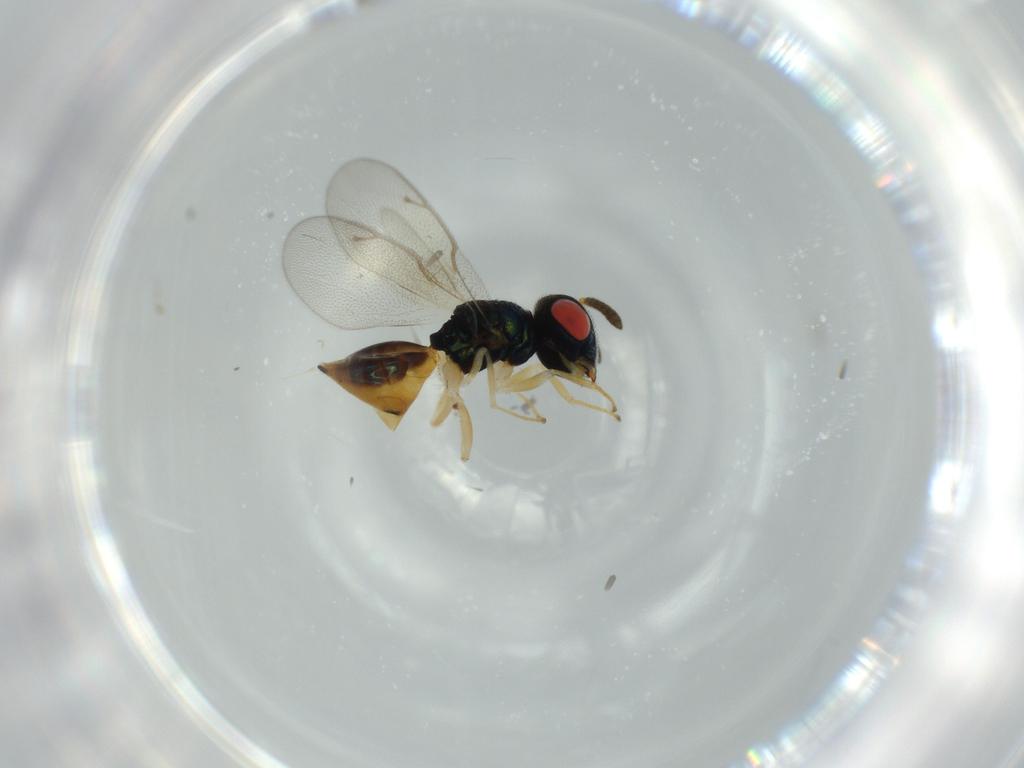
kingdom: Animalia
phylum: Arthropoda
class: Insecta
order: Hymenoptera
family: Pteromalidae
